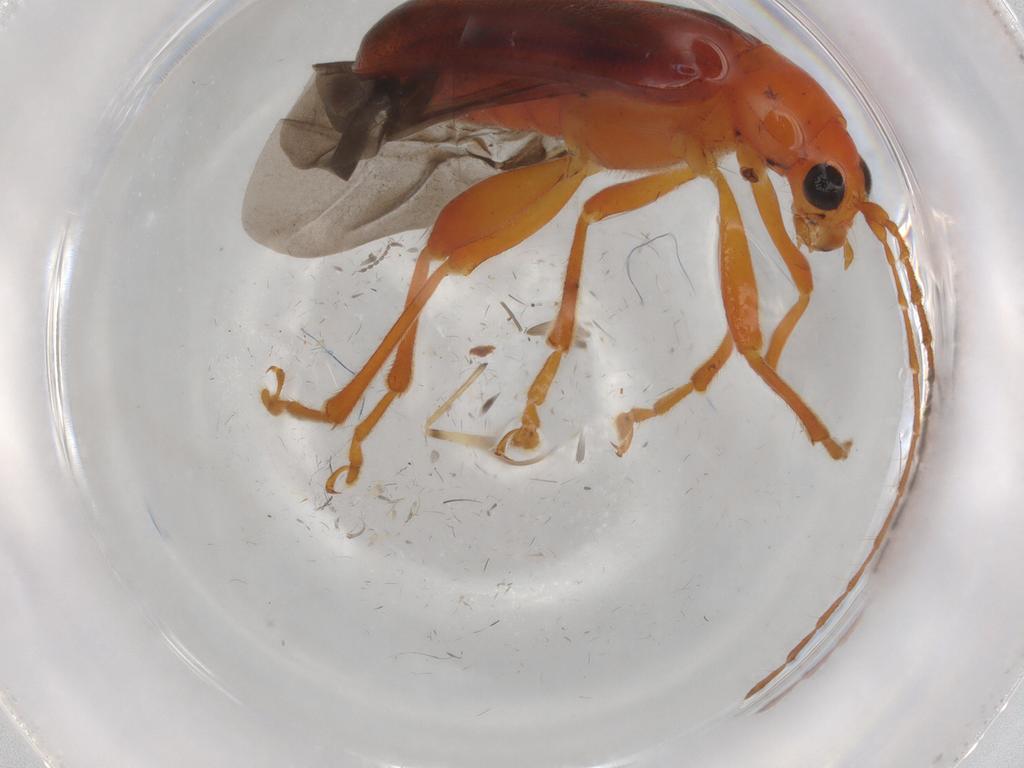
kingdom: Animalia
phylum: Arthropoda
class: Insecta
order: Coleoptera
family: Chrysomelidae
